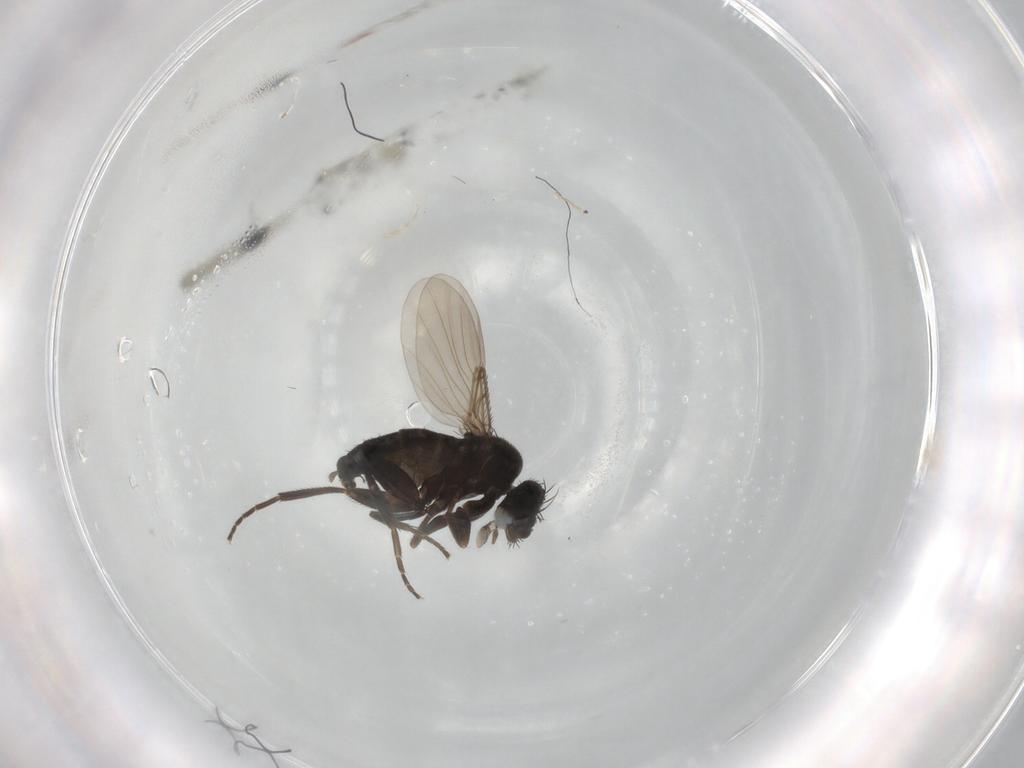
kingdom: Animalia
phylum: Arthropoda
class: Insecta
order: Diptera
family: Phoridae
